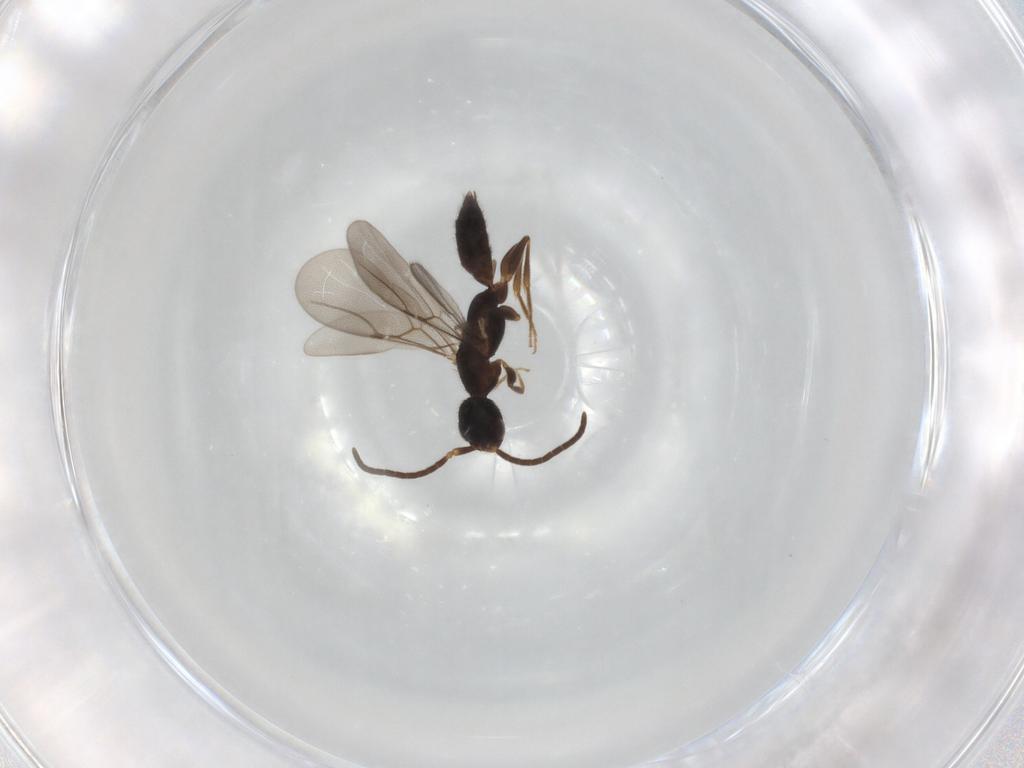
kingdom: Animalia
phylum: Arthropoda
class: Insecta
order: Hymenoptera
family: Bethylidae
